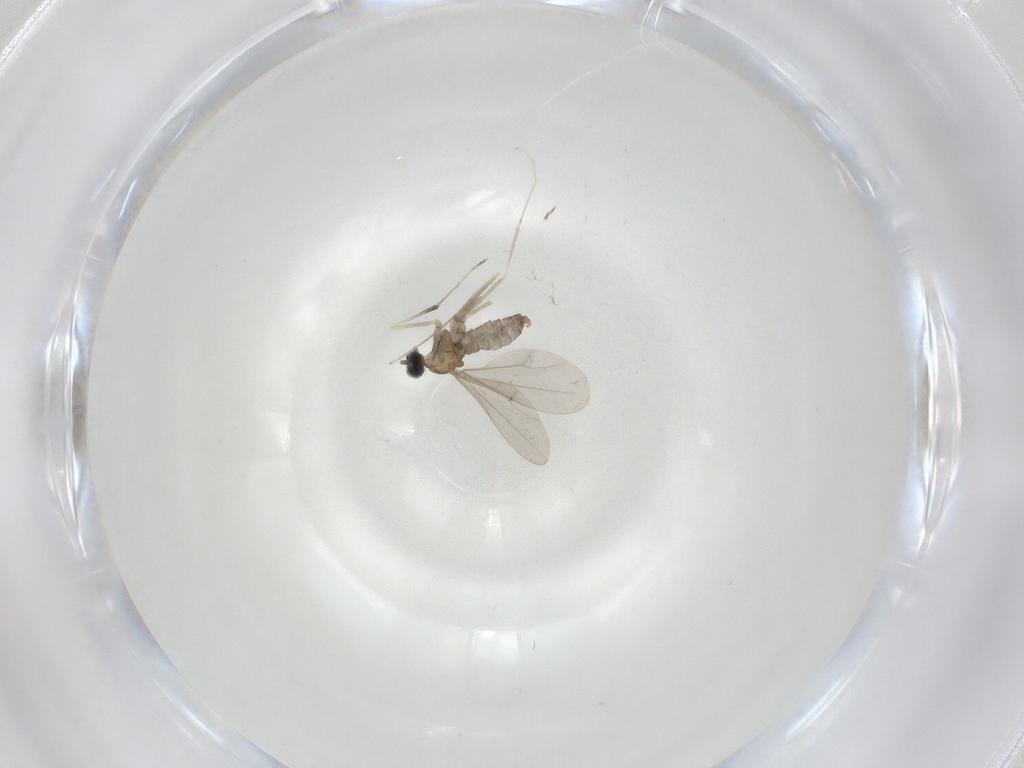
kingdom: Animalia
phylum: Arthropoda
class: Insecta
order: Diptera
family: Cecidomyiidae
